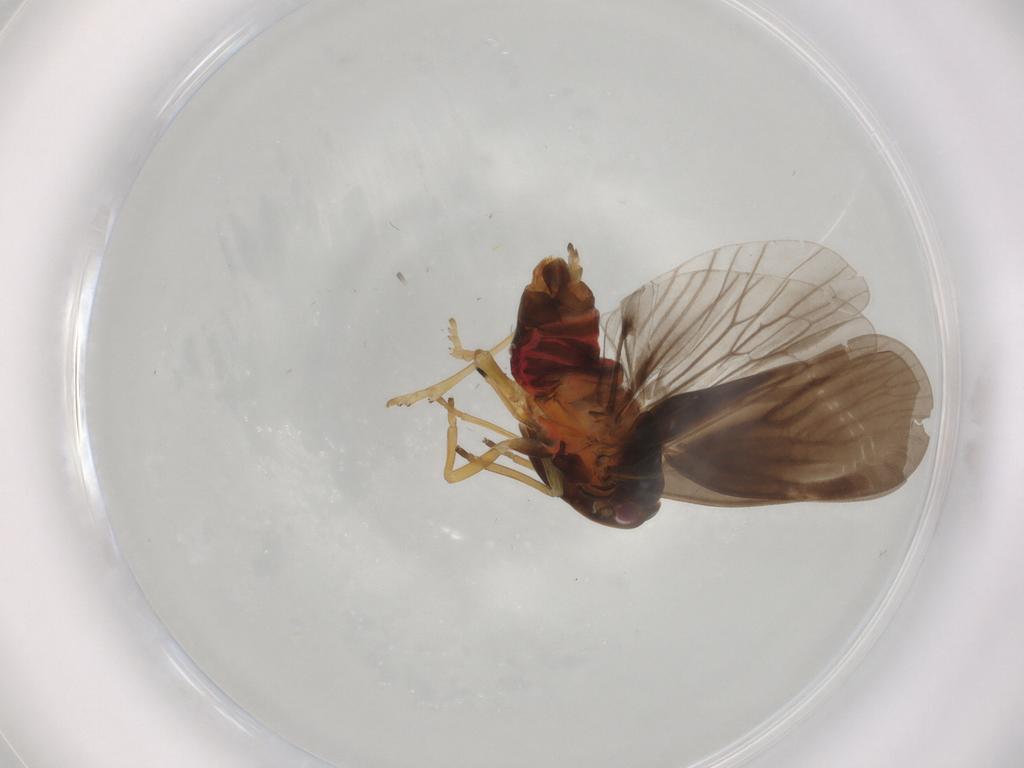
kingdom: Animalia
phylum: Arthropoda
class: Insecta
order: Hemiptera
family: Derbidae
